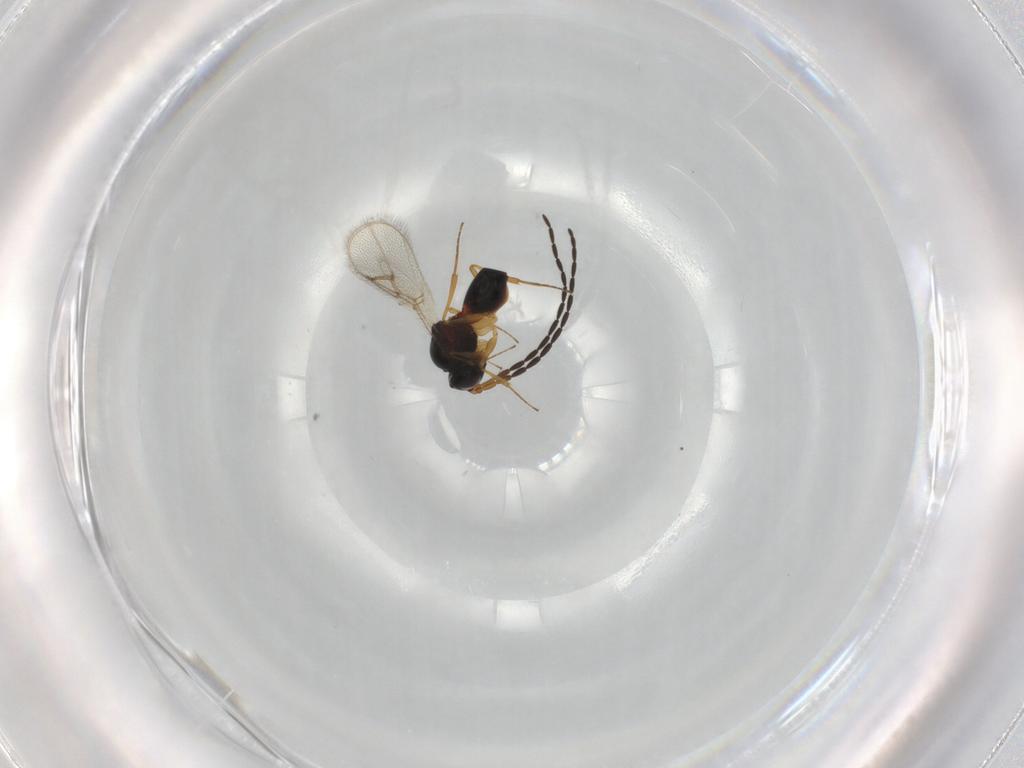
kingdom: Animalia
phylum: Arthropoda
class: Insecta
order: Hymenoptera
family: Figitidae
